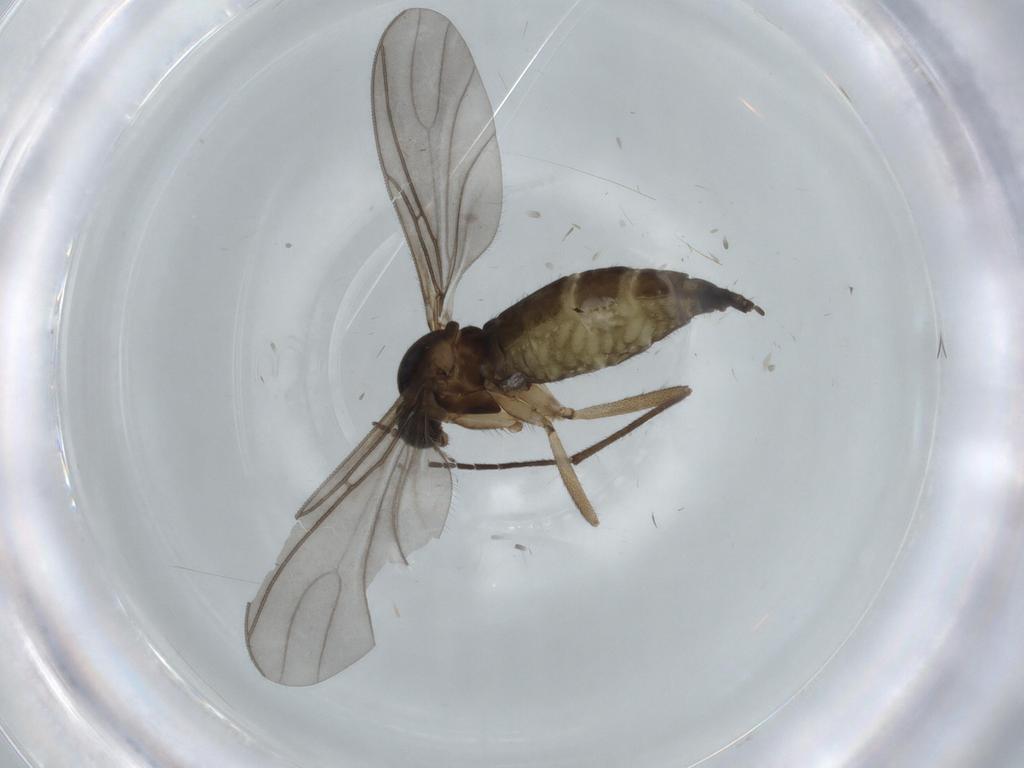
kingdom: Animalia
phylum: Arthropoda
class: Insecta
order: Diptera
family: Sciaridae
